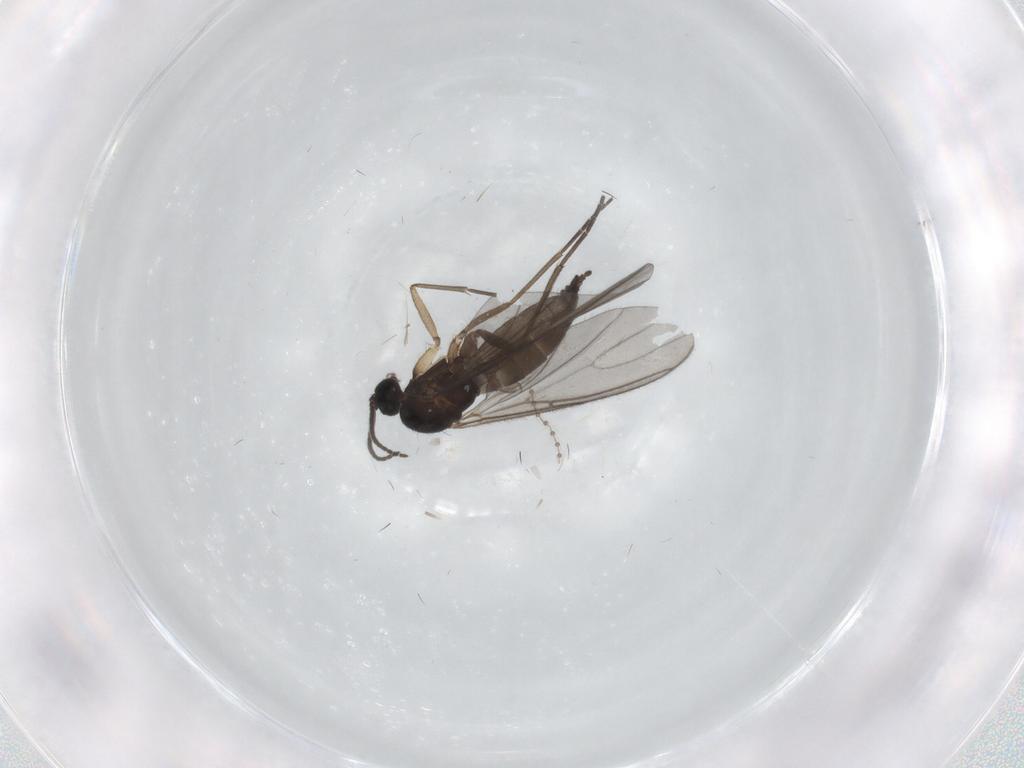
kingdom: Animalia
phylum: Arthropoda
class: Insecta
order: Diptera
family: Sciaridae
